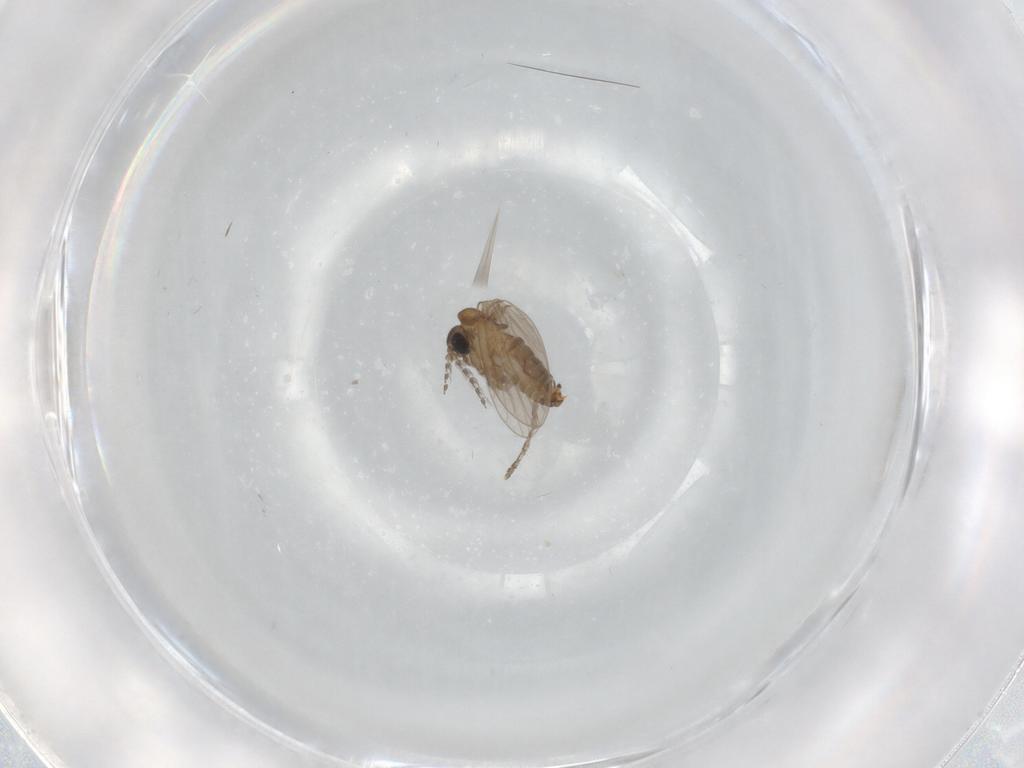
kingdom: Animalia
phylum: Arthropoda
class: Insecta
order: Diptera
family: Psychodidae
